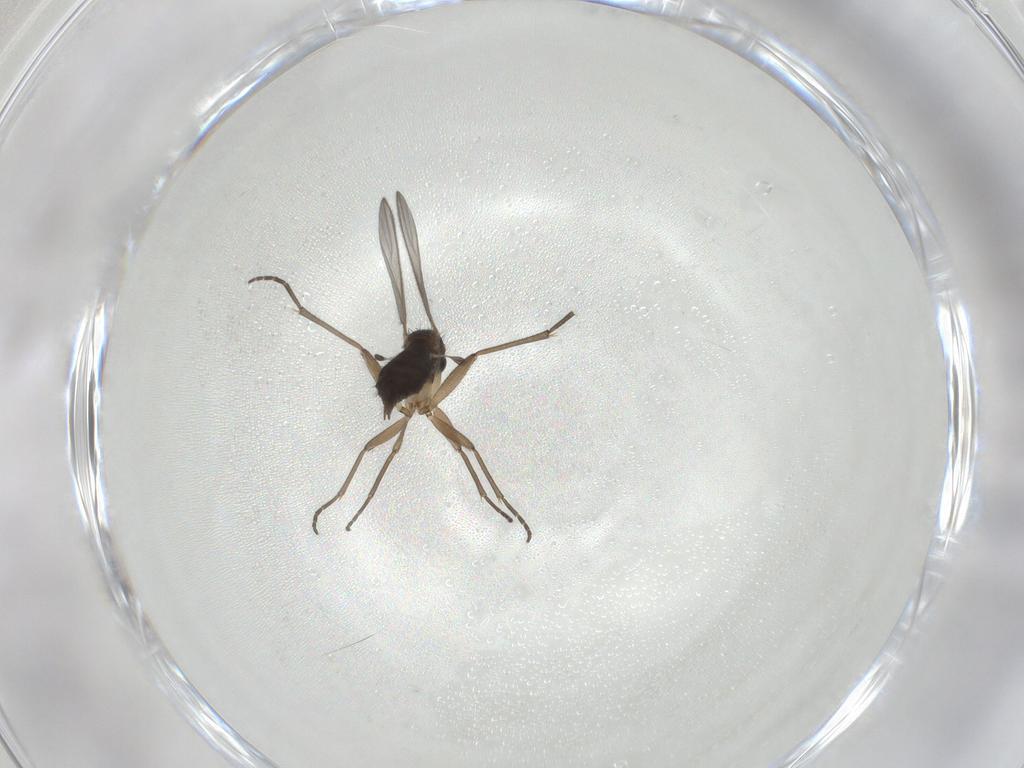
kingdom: Animalia
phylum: Arthropoda
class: Insecta
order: Diptera
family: Sciaridae
